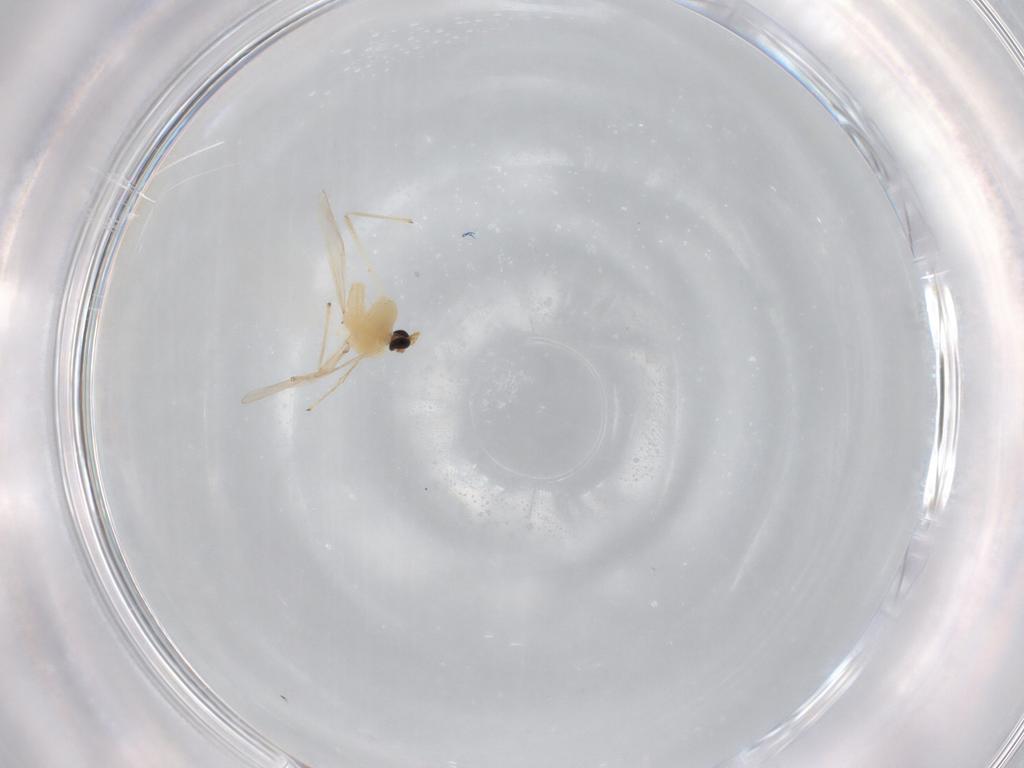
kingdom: Animalia
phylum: Arthropoda
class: Insecta
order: Diptera
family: Chironomidae
